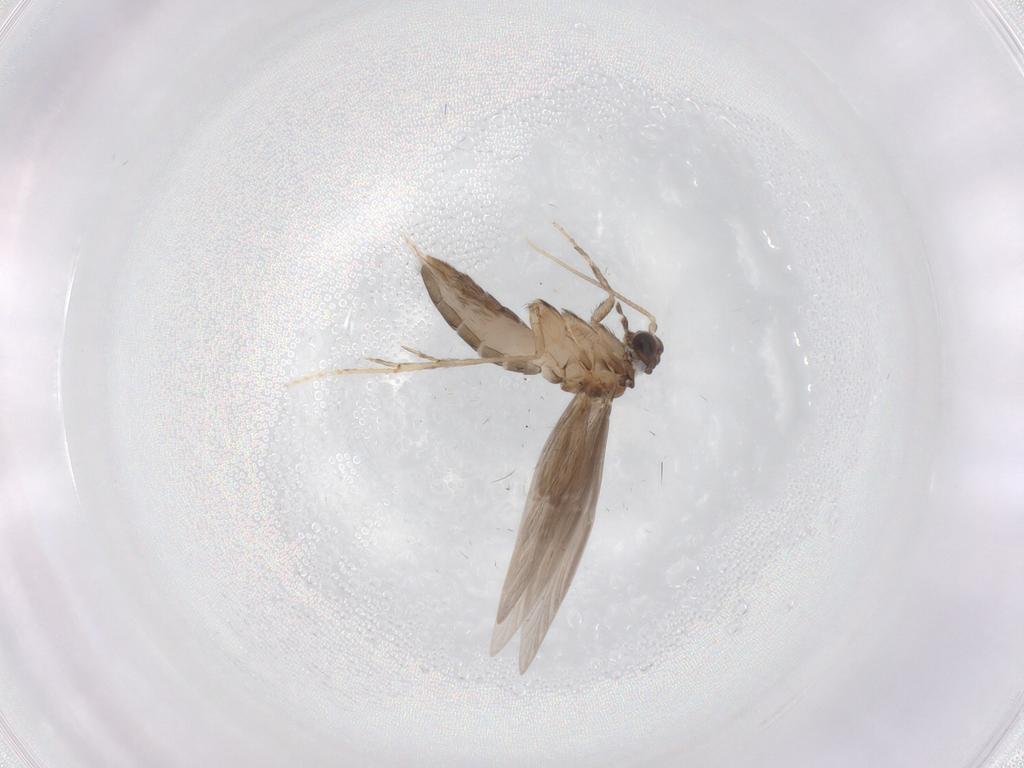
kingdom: Animalia
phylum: Arthropoda
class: Insecta
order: Trichoptera
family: Hydroptilidae
